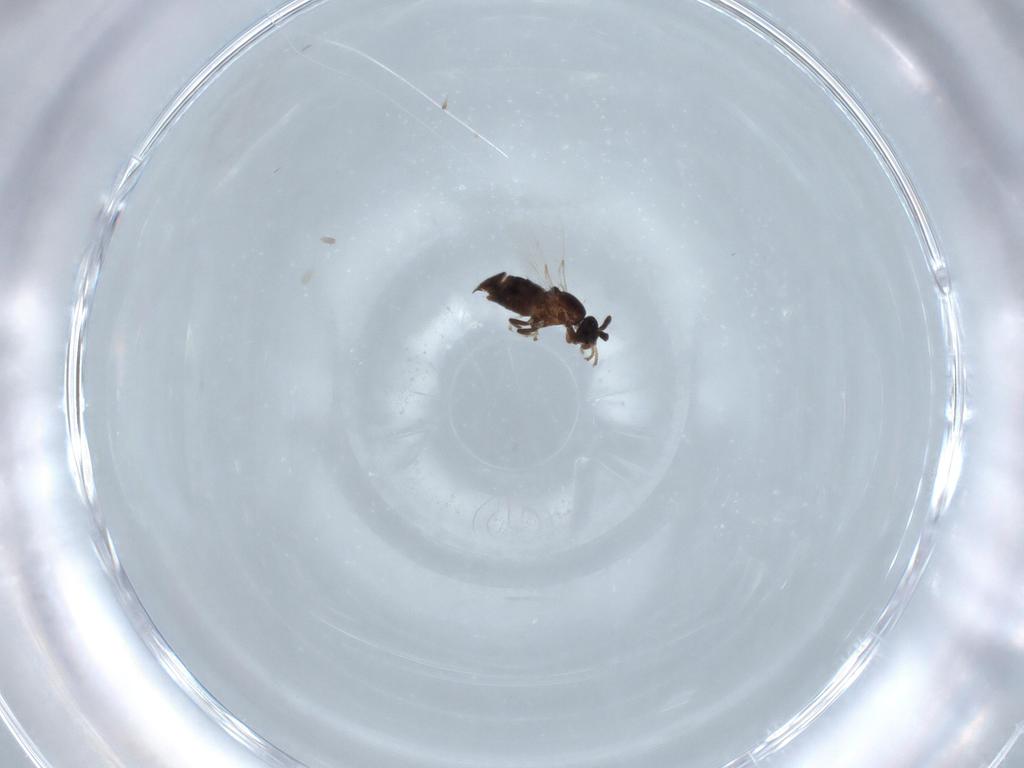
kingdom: Animalia
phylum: Arthropoda
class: Insecta
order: Diptera
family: Scatopsidae
